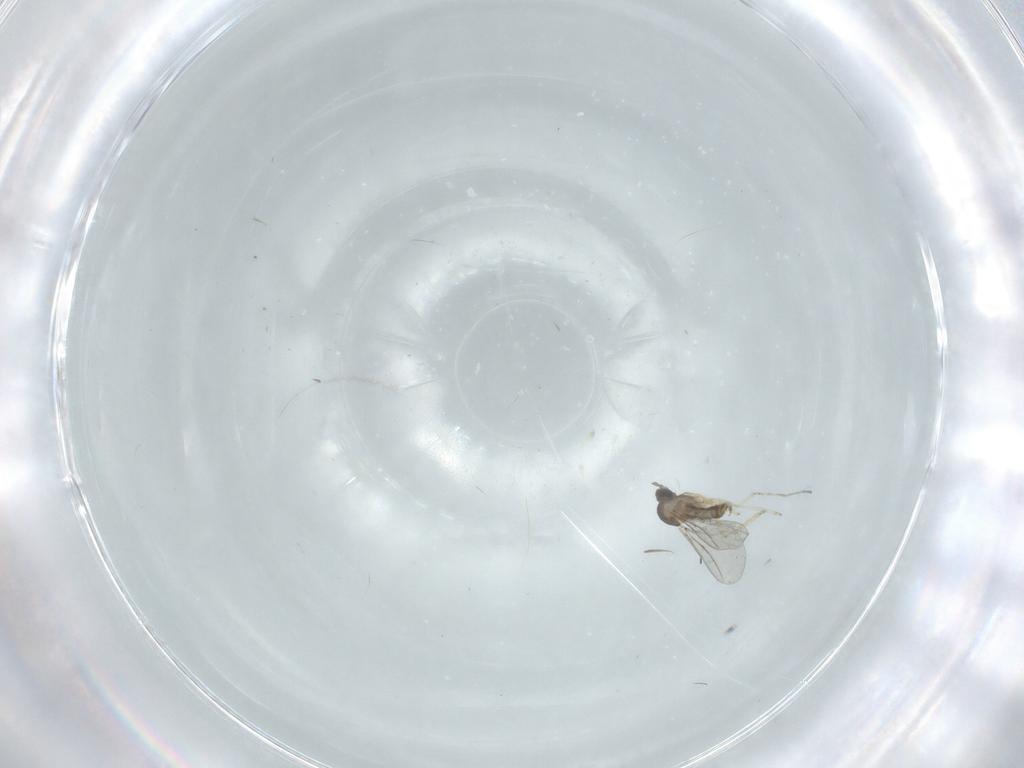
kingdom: Animalia
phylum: Arthropoda
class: Insecta
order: Diptera
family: Cecidomyiidae
